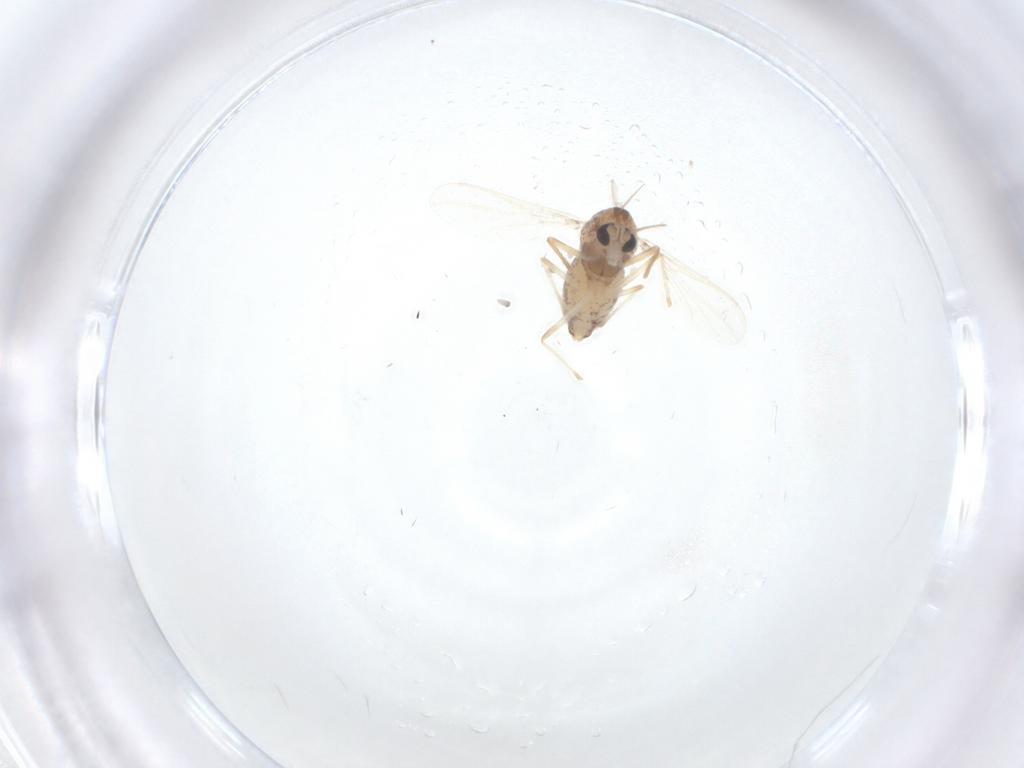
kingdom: Animalia
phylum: Arthropoda
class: Insecta
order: Diptera
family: Chironomidae
